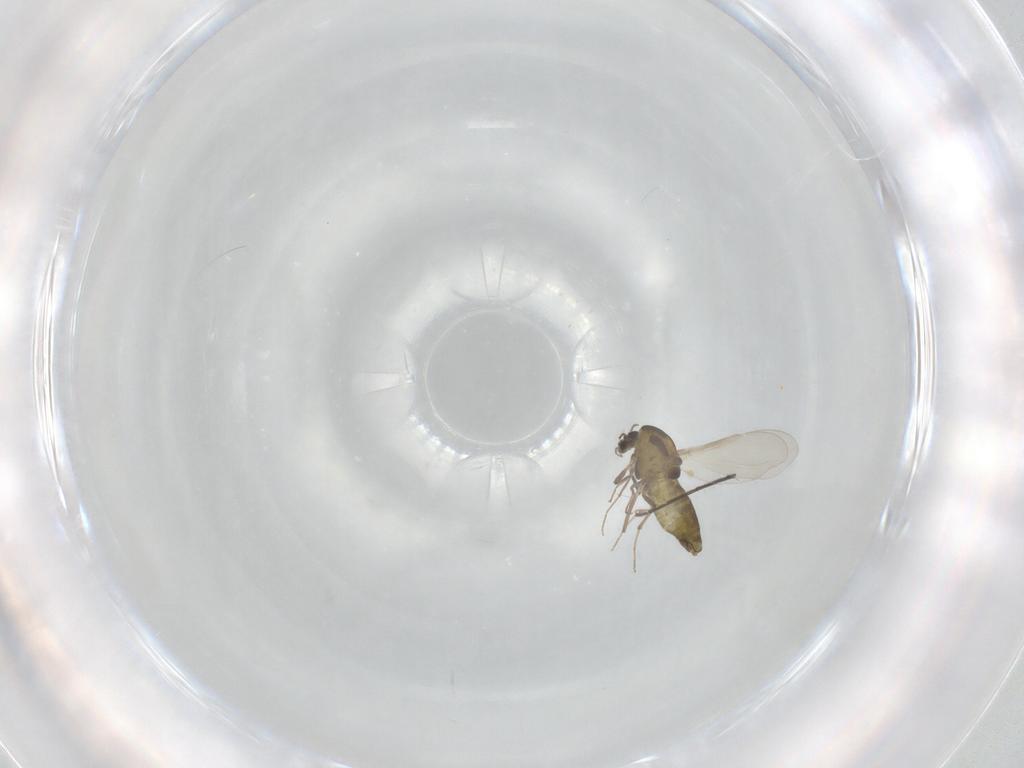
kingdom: Animalia
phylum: Arthropoda
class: Insecta
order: Diptera
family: Chironomidae
